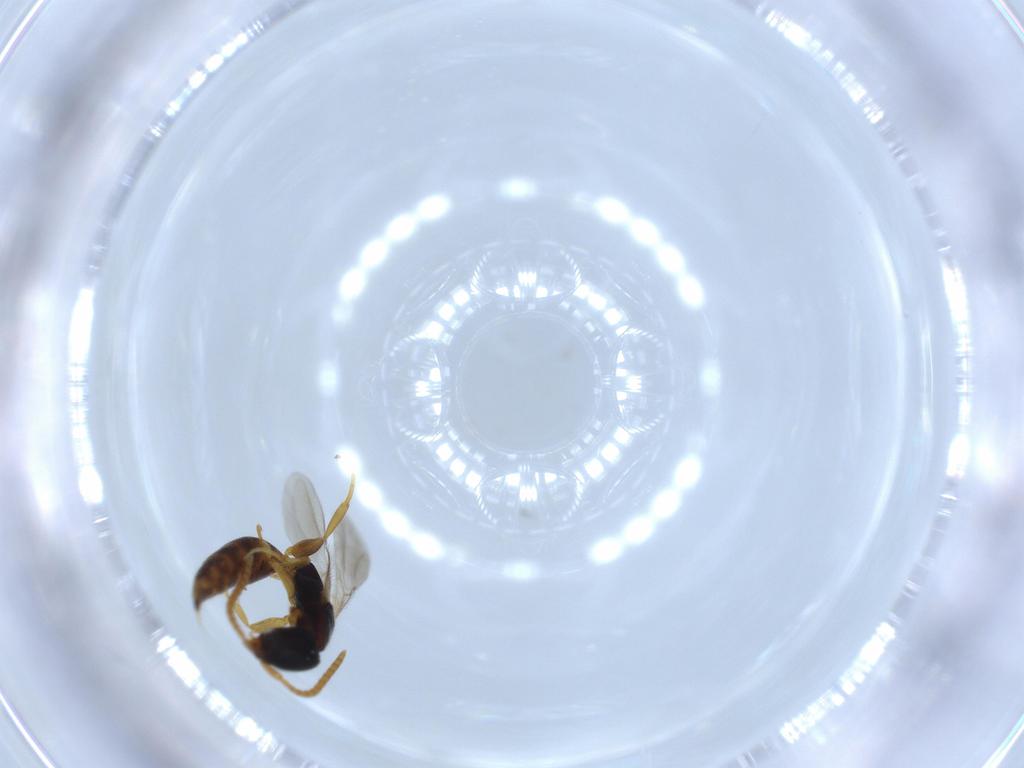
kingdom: Animalia
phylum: Arthropoda
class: Insecta
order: Hymenoptera
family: Bethylidae
